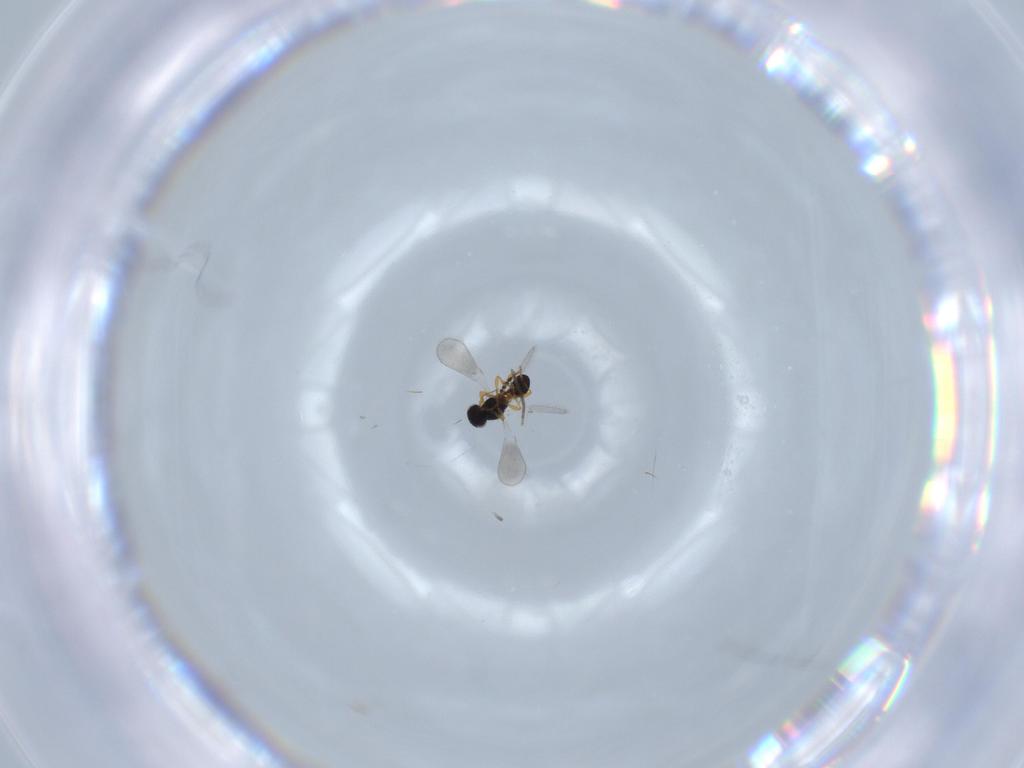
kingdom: Animalia
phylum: Arthropoda
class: Insecta
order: Hymenoptera
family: Platygastridae
